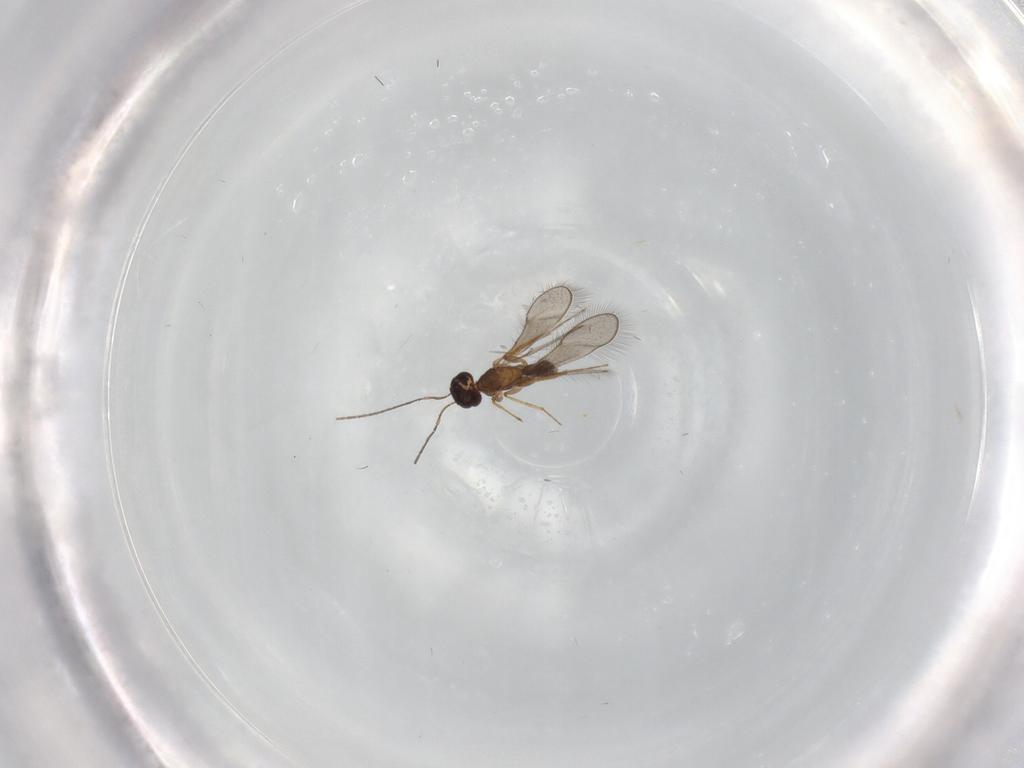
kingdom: Animalia
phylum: Arthropoda
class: Insecta
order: Hymenoptera
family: Mymaridae
